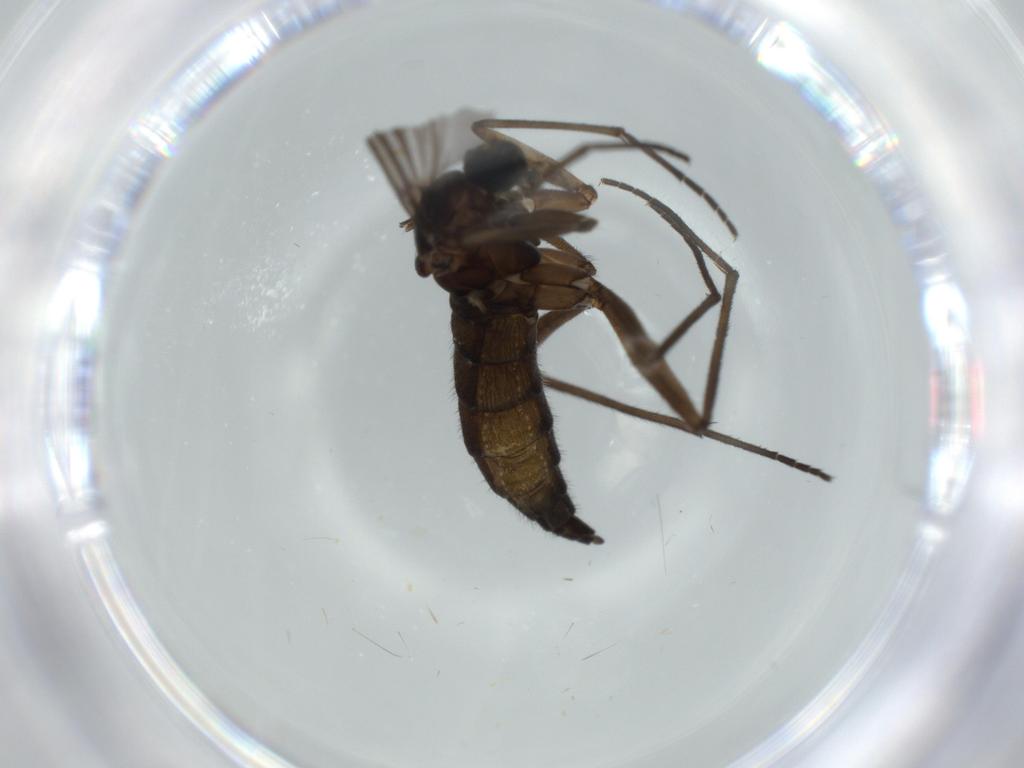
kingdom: Animalia
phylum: Arthropoda
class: Insecta
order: Diptera
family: Sciaridae
